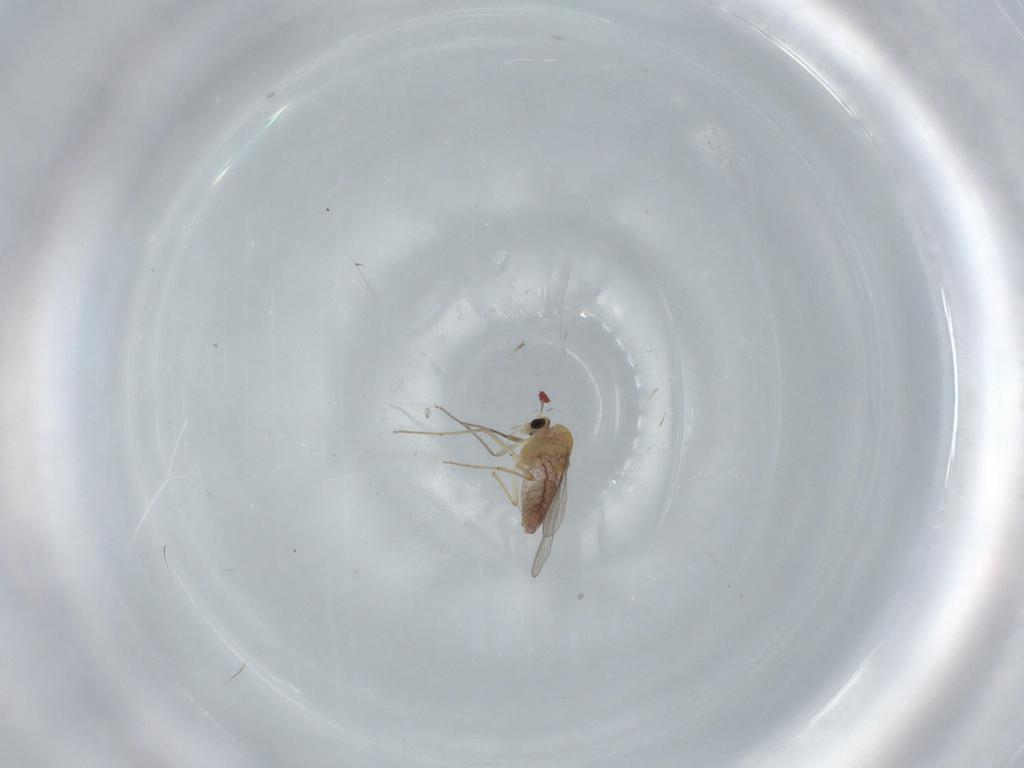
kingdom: Animalia
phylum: Arthropoda
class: Insecta
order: Diptera
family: Chironomidae
